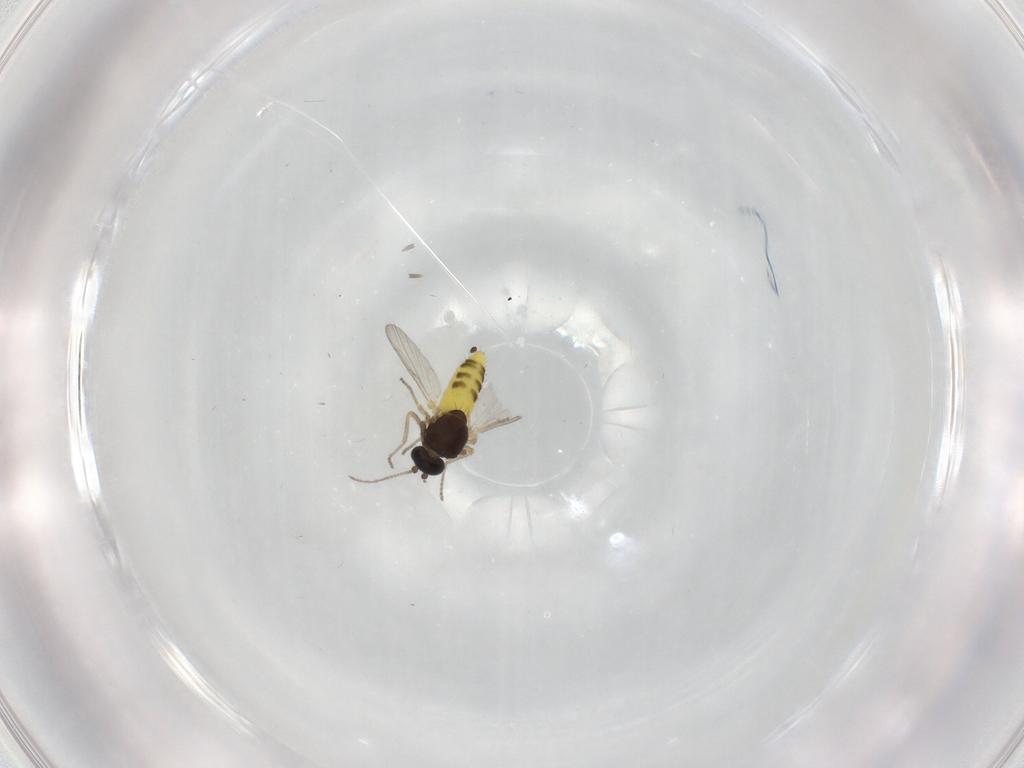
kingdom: Animalia
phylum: Arthropoda
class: Insecta
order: Diptera
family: Ceratopogonidae
